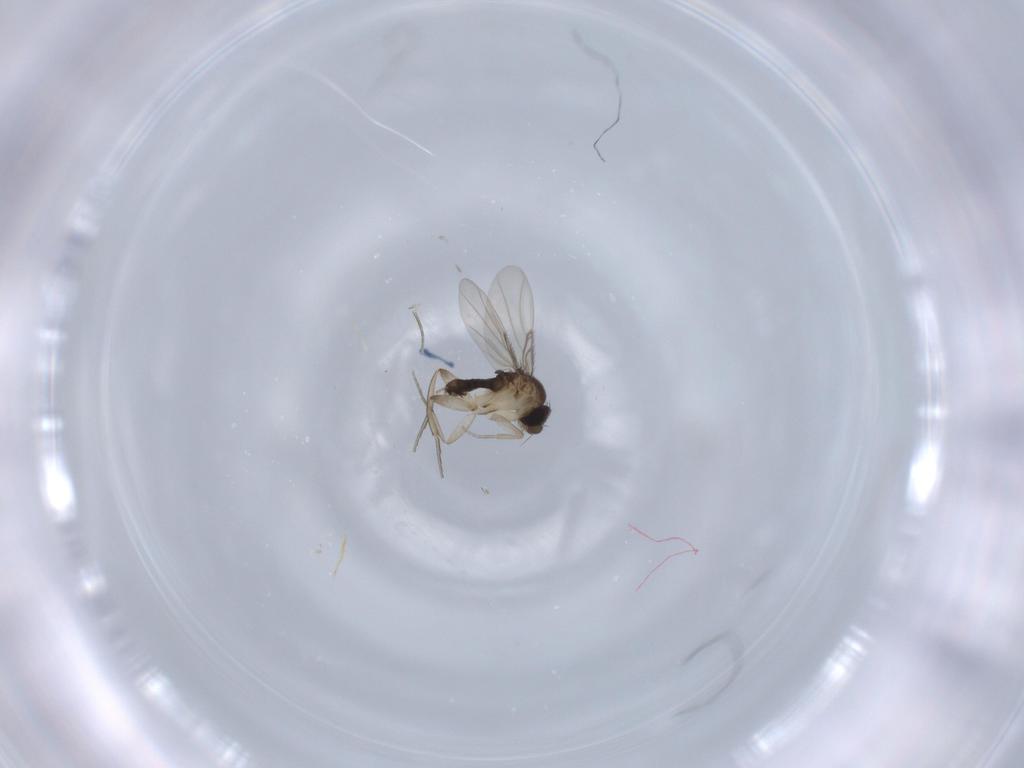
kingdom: Animalia
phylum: Arthropoda
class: Insecta
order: Diptera
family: Phoridae
